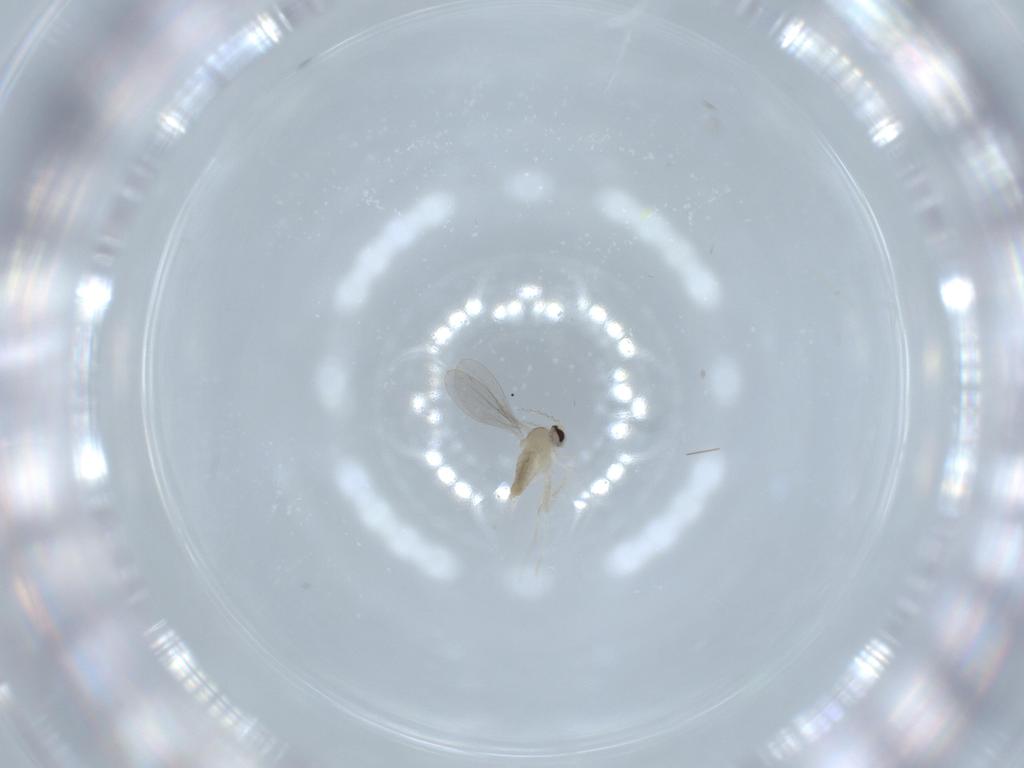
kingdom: Animalia
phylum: Arthropoda
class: Insecta
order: Diptera
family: Cecidomyiidae
